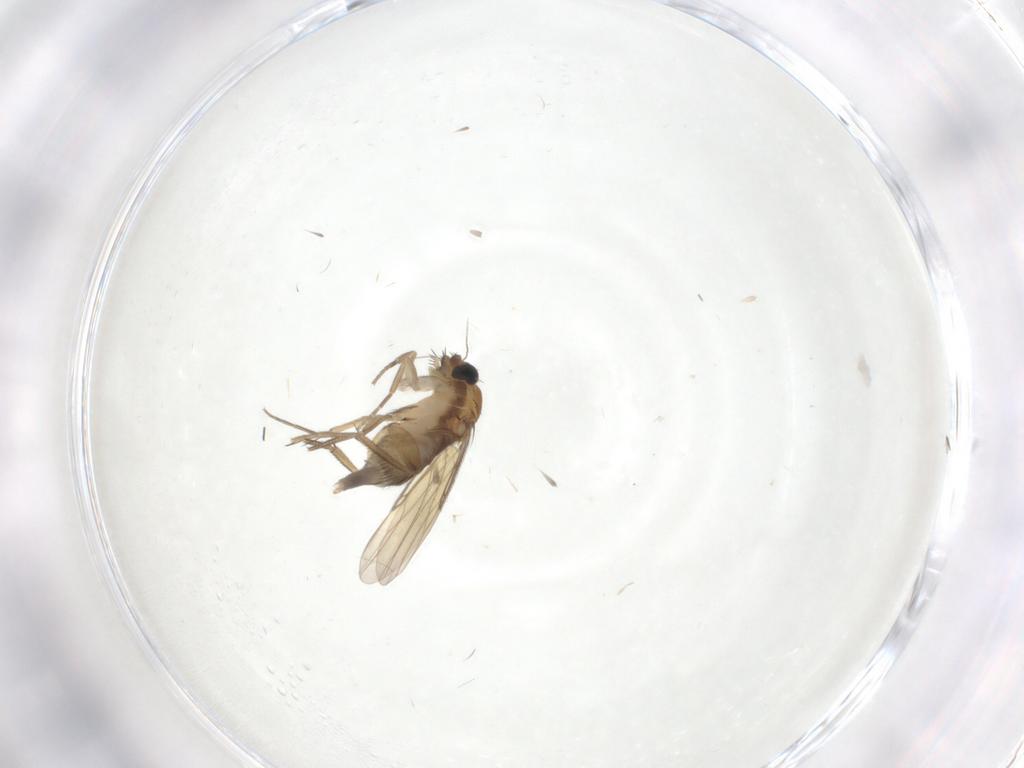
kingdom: Animalia
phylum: Arthropoda
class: Insecta
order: Diptera
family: Phoridae
